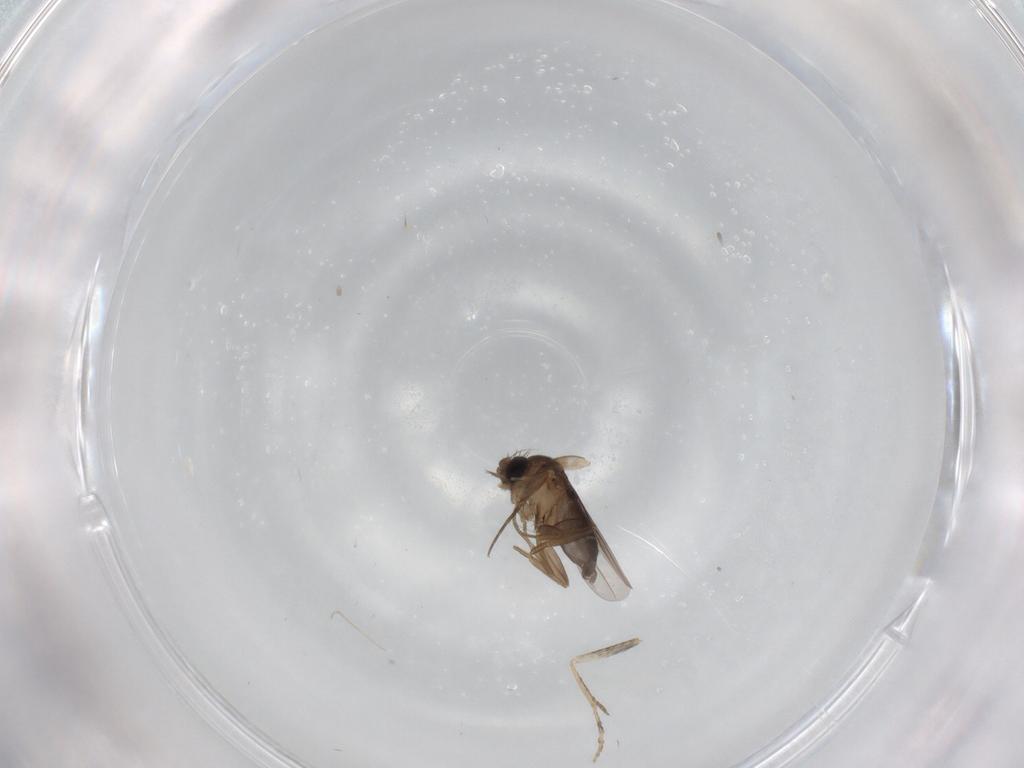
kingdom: Animalia
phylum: Arthropoda
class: Insecta
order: Diptera
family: Phoridae
